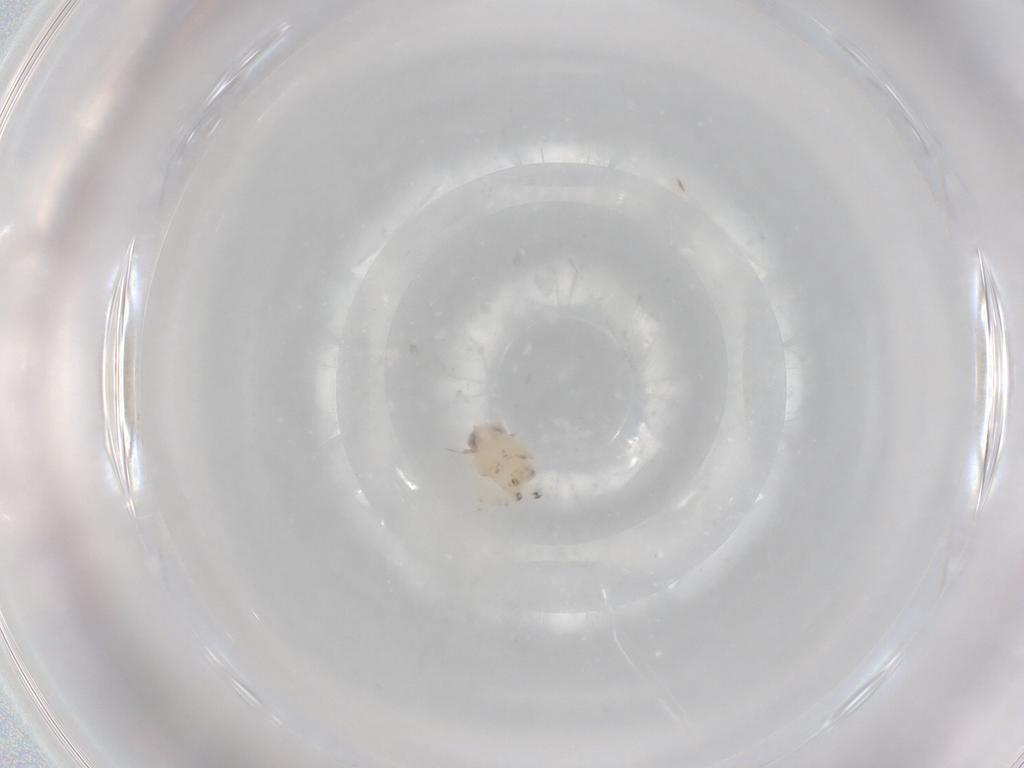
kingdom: Animalia
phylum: Arthropoda
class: Insecta
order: Hemiptera
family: Nogodinidae
